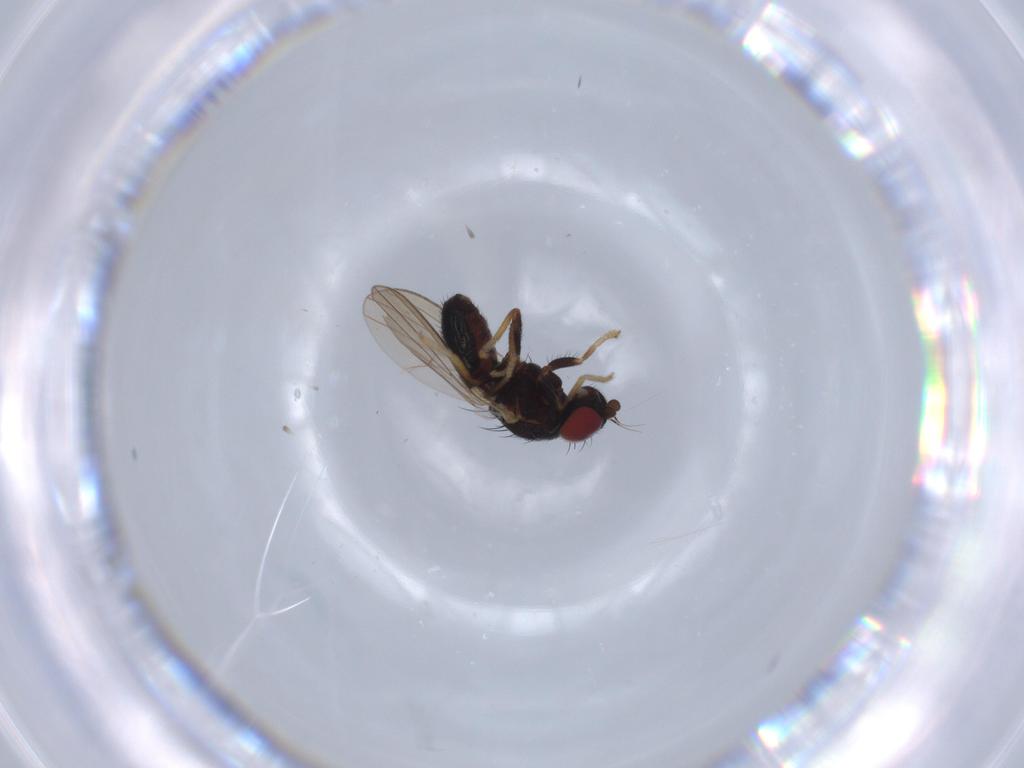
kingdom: Animalia
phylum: Arthropoda
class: Insecta
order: Diptera
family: Chamaemyiidae
